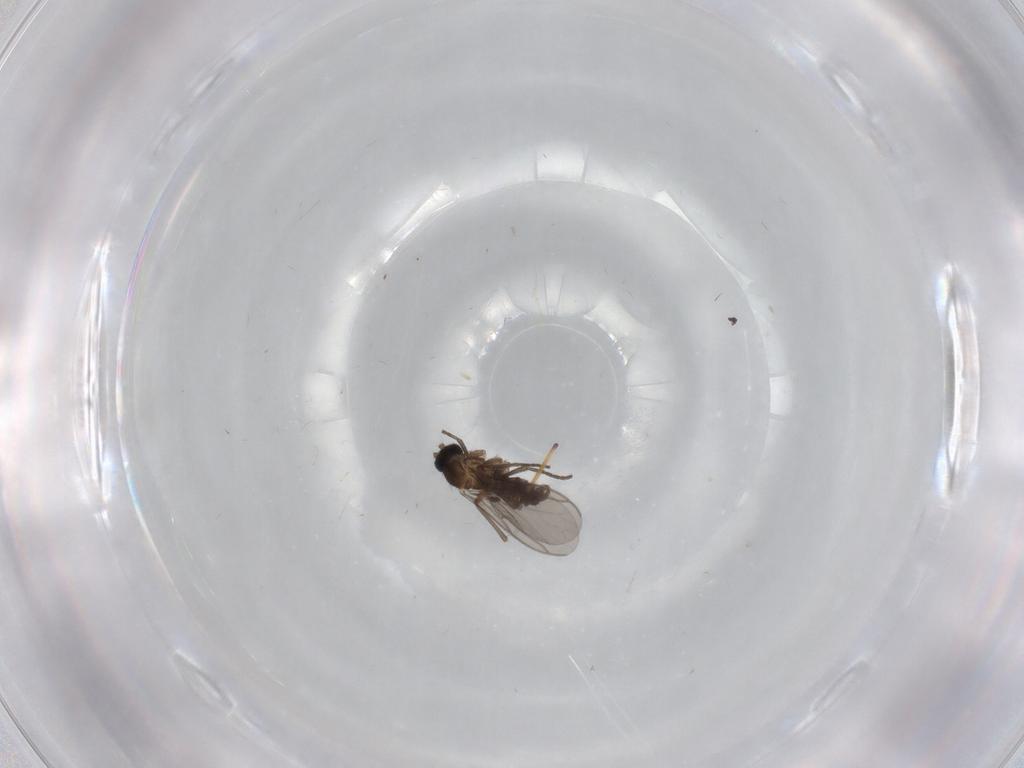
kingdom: Animalia
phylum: Arthropoda
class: Insecta
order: Diptera
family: Agromyzidae
